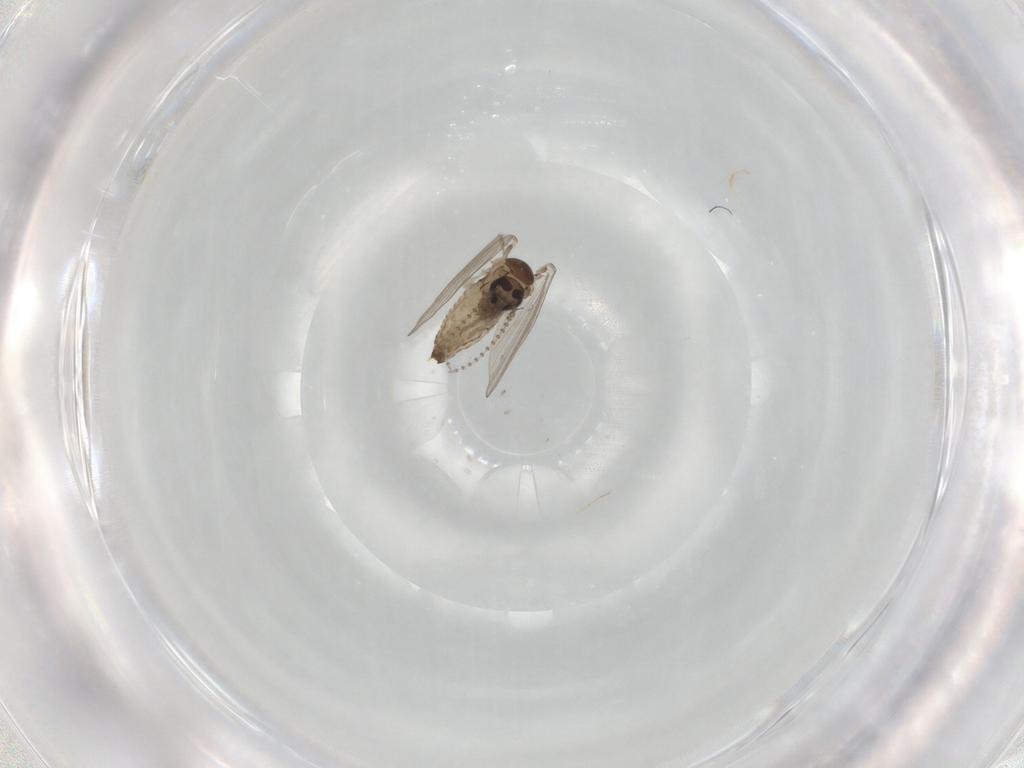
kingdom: Animalia
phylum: Arthropoda
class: Insecta
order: Diptera
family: Psychodidae
